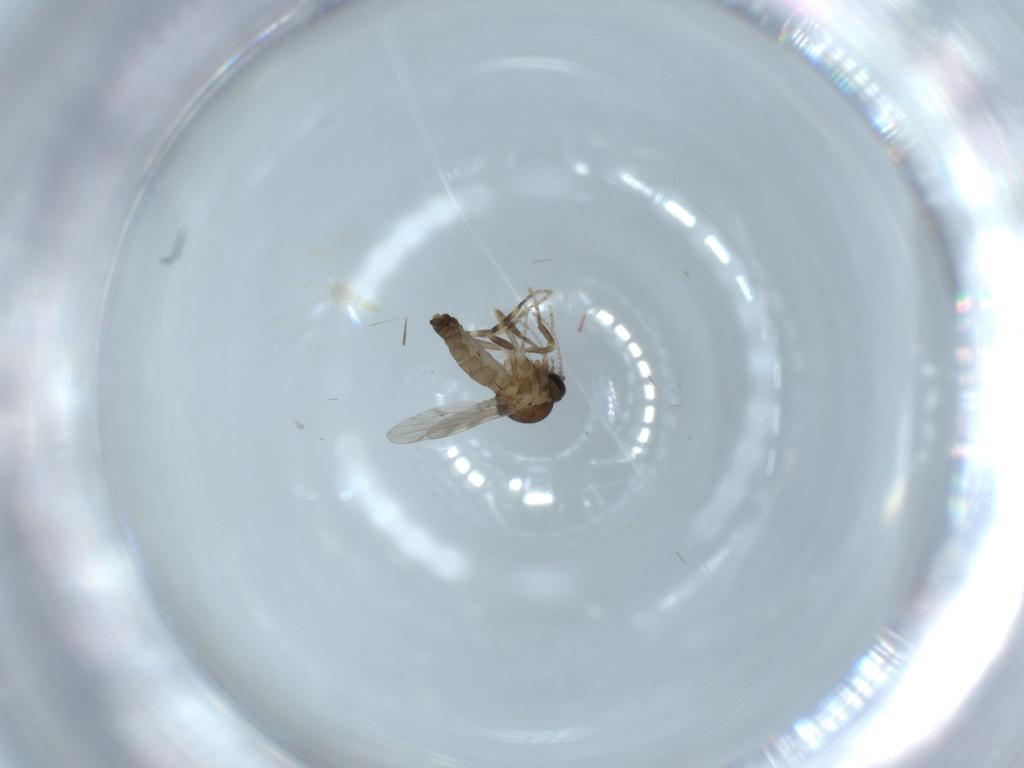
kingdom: Animalia
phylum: Arthropoda
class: Insecta
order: Diptera
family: Ceratopogonidae
